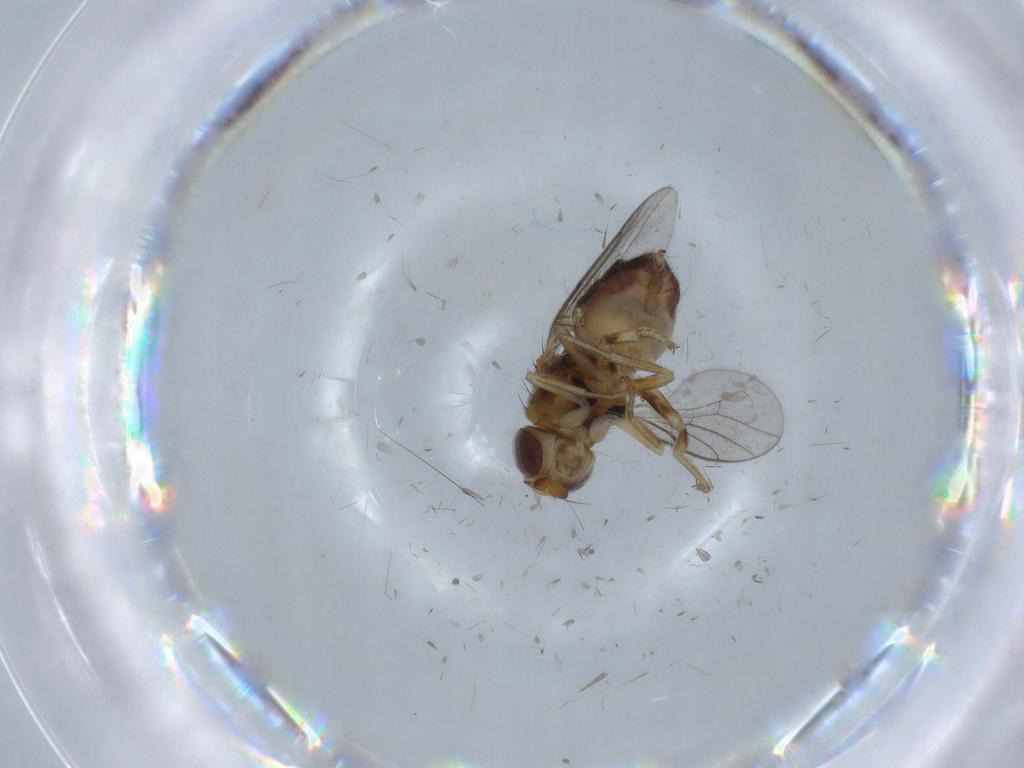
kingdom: Animalia
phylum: Arthropoda
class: Insecta
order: Diptera
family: Chloropidae
